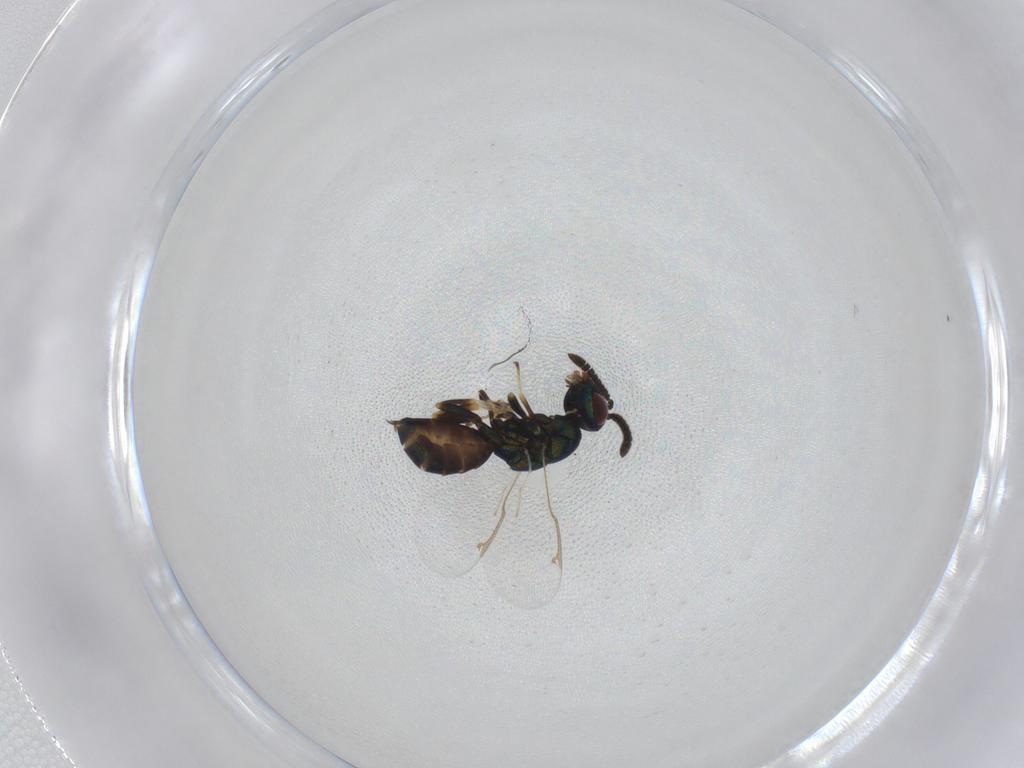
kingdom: Animalia
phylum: Arthropoda
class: Insecta
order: Hymenoptera
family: Torymidae
